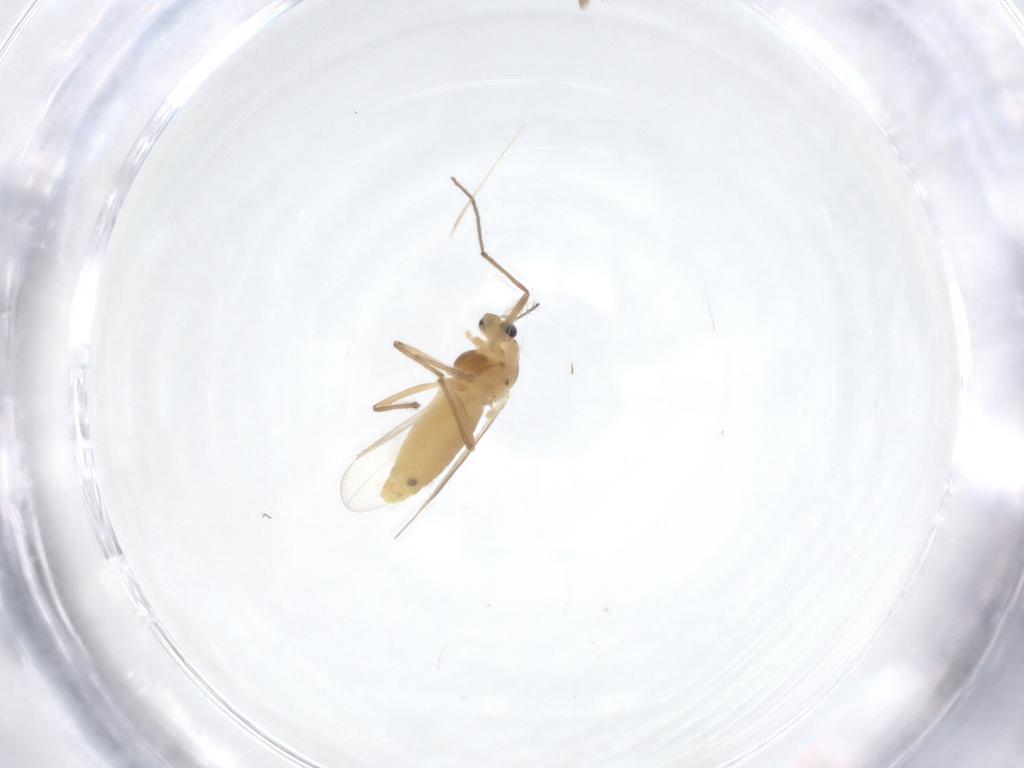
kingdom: Animalia
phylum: Arthropoda
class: Insecta
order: Diptera
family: Chironomidae
